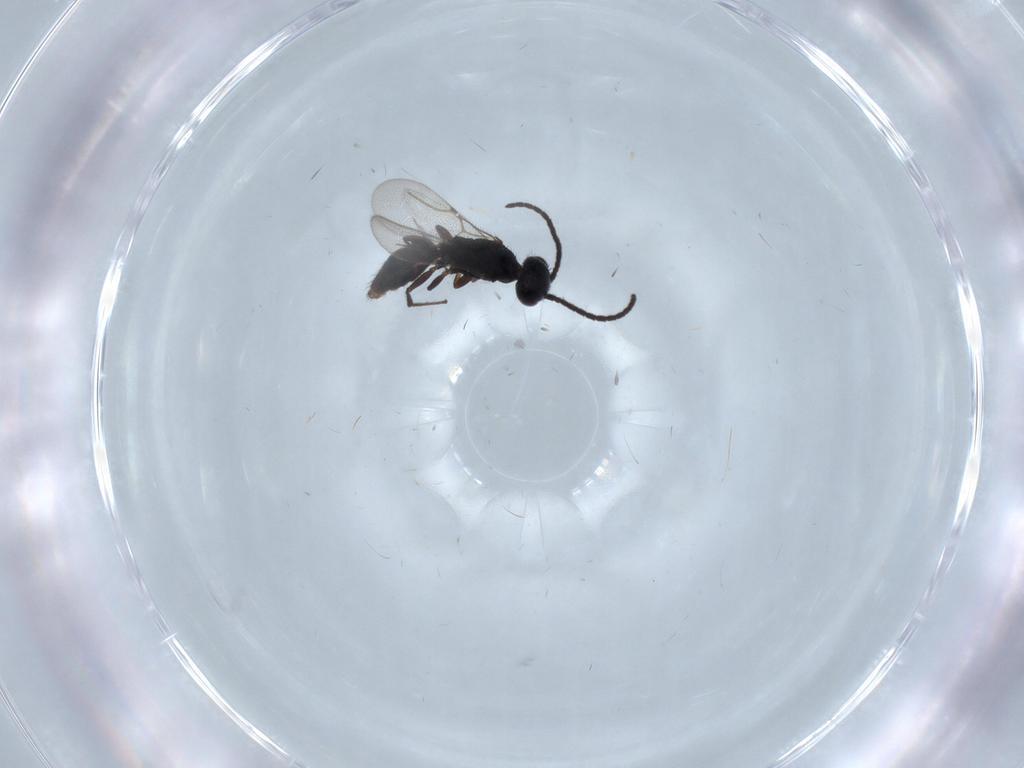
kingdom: Animalia
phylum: Arthropoda
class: Insecta
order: Hymenoptera
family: Bethylidae
